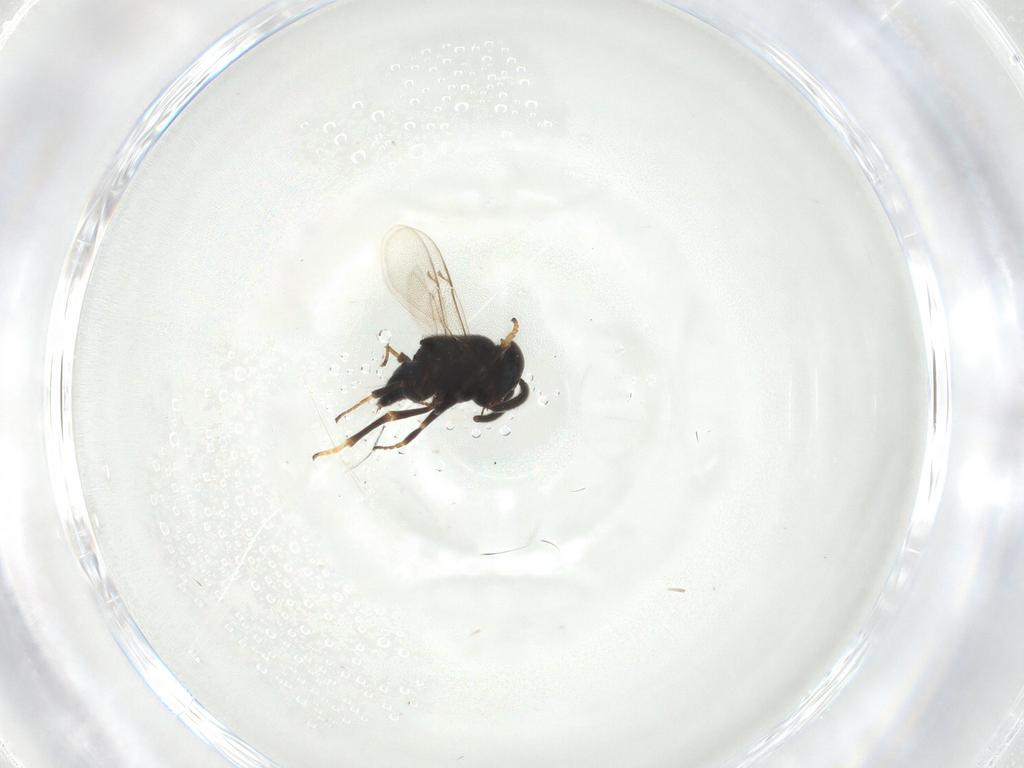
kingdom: Animalia
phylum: Arthropoda
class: Insecta
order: Hymenoptera
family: Encyrtidae
